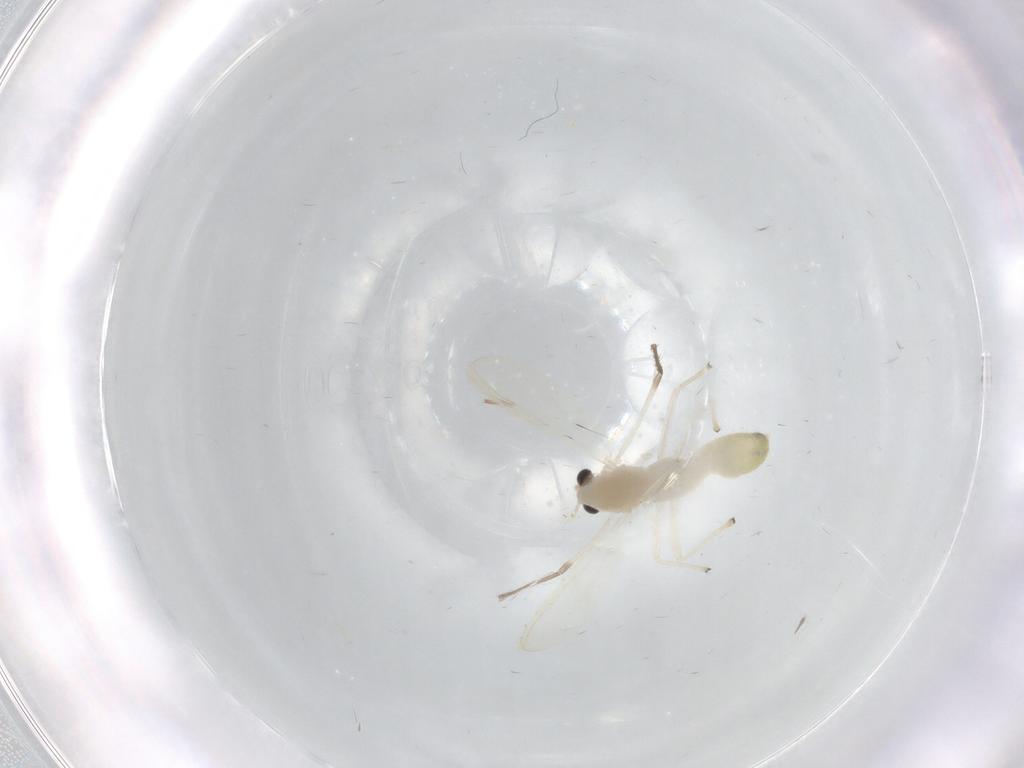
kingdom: Animalia
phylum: Arthropoda
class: Insecta
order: Diptera
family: Chironomidae
